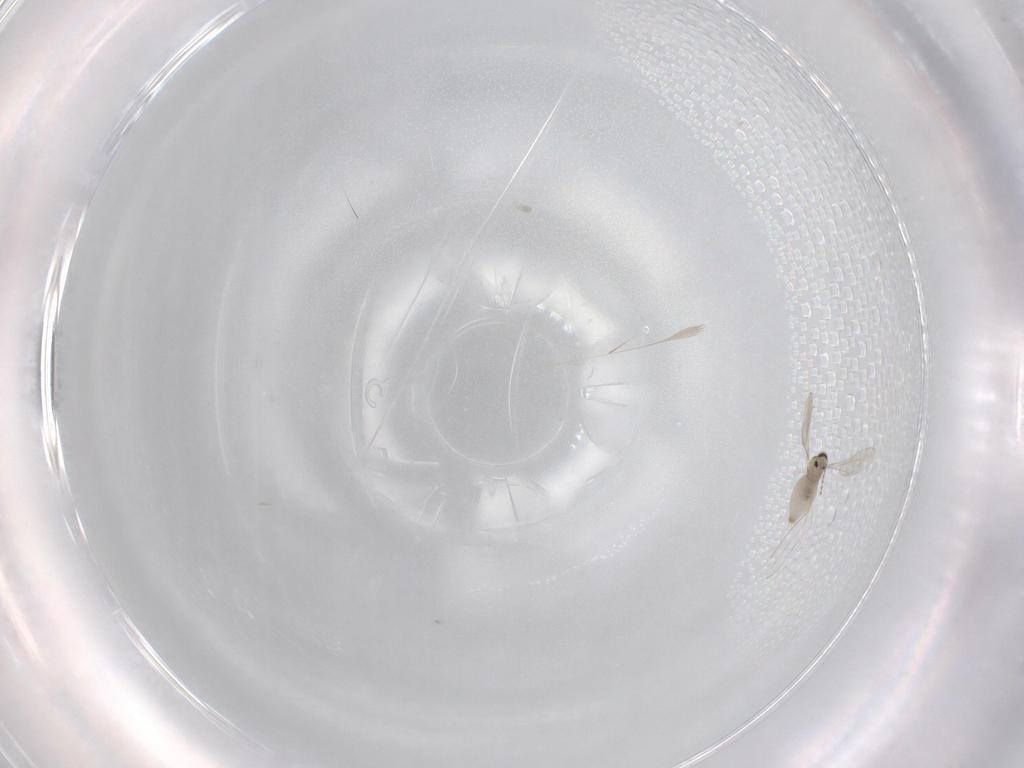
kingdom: Animalia
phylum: Arthropoda
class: Insecta
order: Diptera
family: Cecidomyiidae
